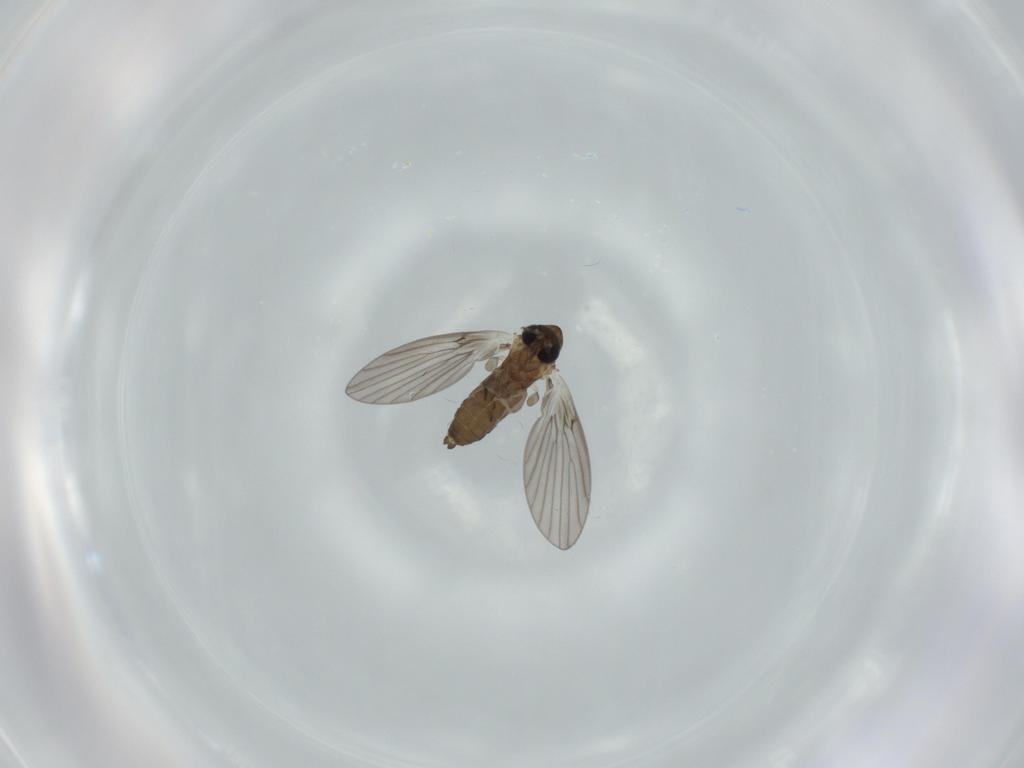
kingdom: Animalia
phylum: Arthropoda
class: Insecta
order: Diptera
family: Psychodidae
